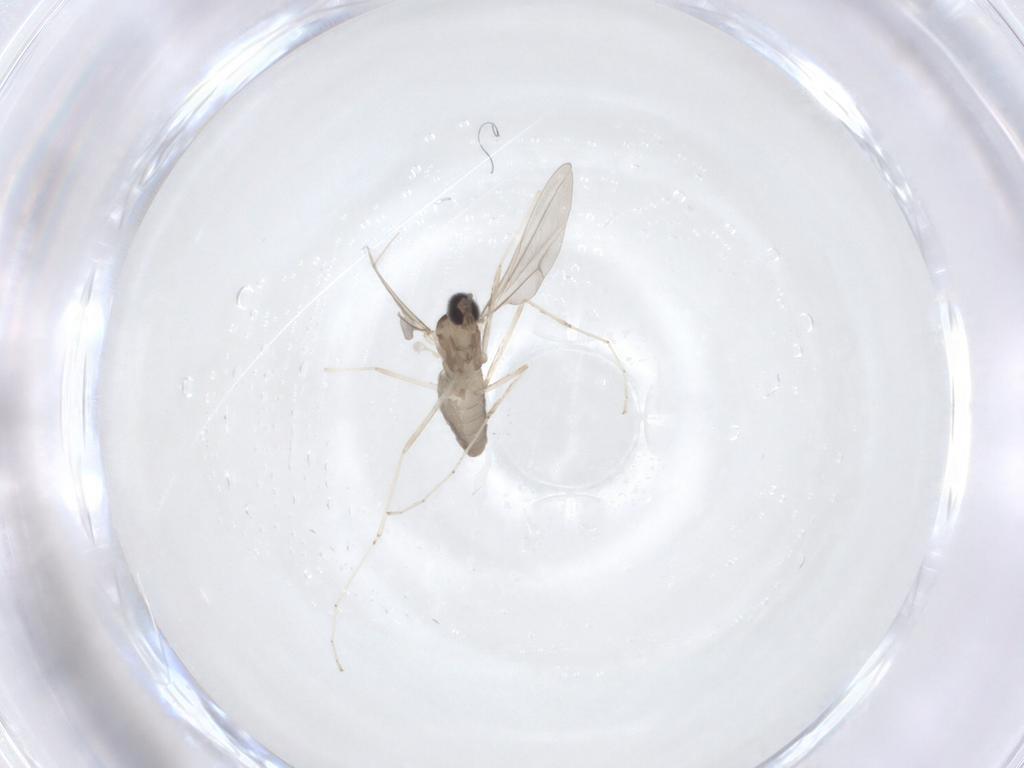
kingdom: Animalia
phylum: Arthropoda
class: Insecta
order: Diptera
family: Cecidomyiidae
